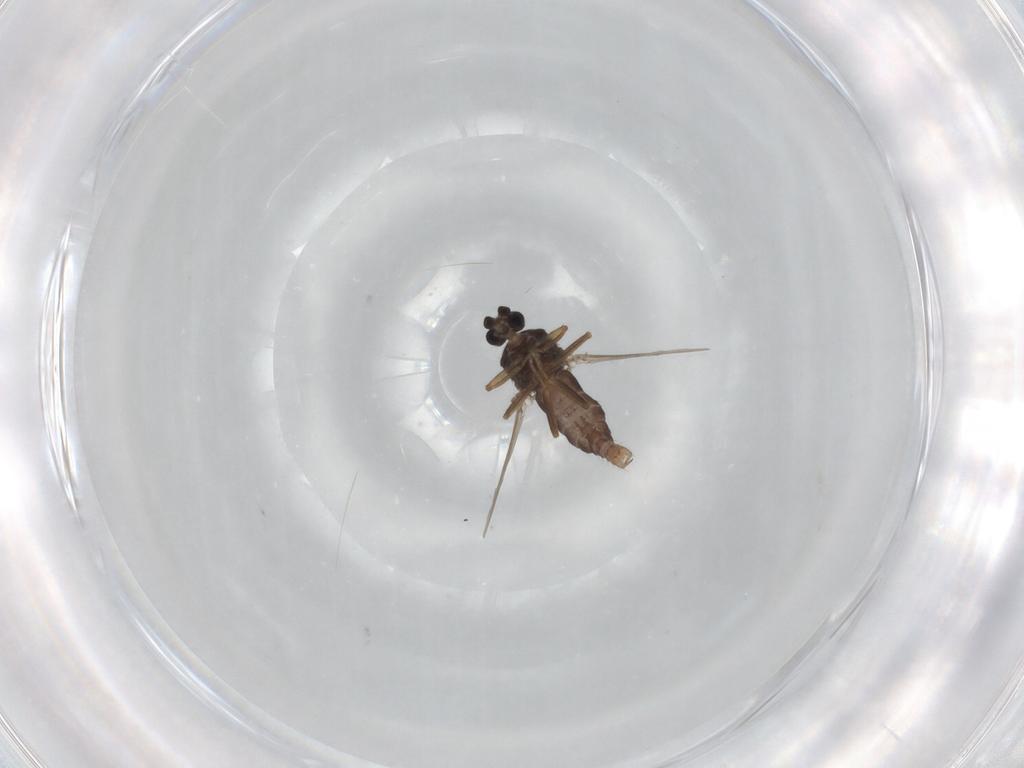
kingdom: Animalia
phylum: Arthropoda
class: Insecta
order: Diptera
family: Ceratopogonidae
